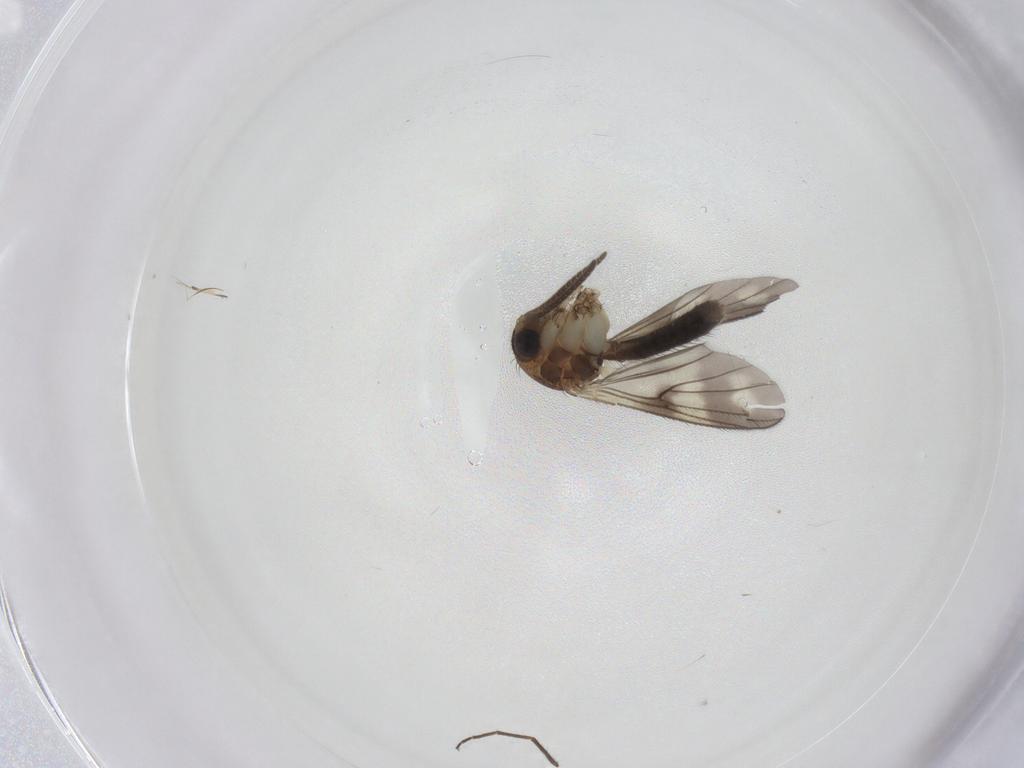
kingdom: Animalia
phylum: Arthropoda
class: Insecta
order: Diptera
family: Mycetophilidae
